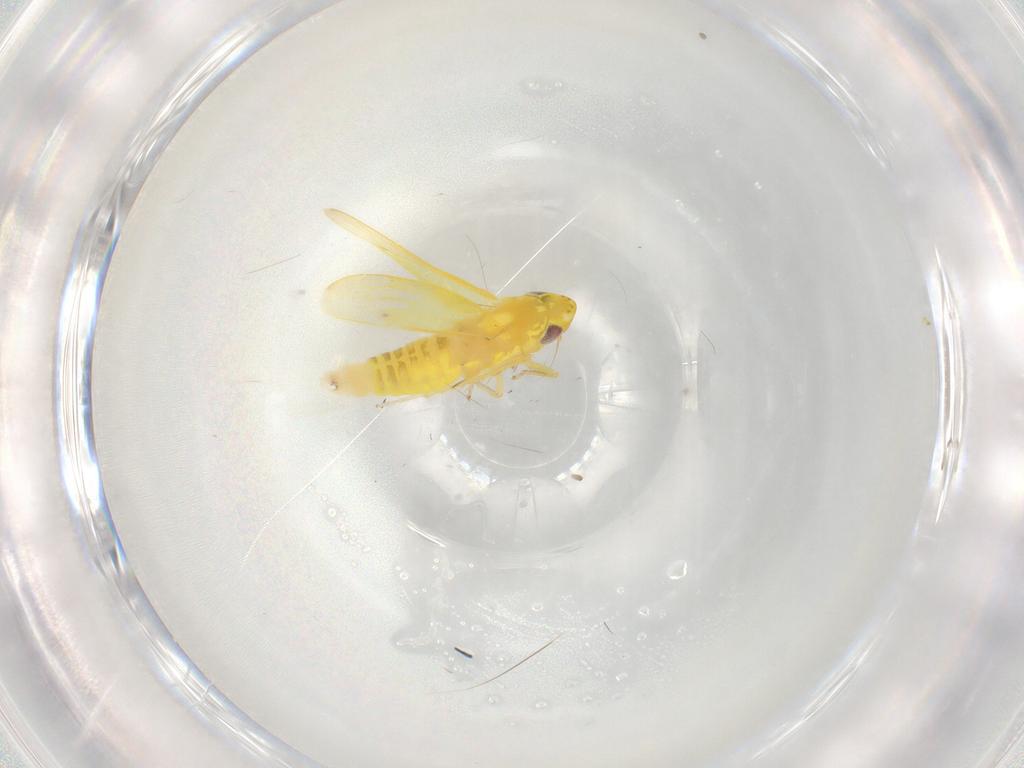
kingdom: Animalia
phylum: Arthropoda
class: Insecta
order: Hemiptera
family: Cicadellidae
